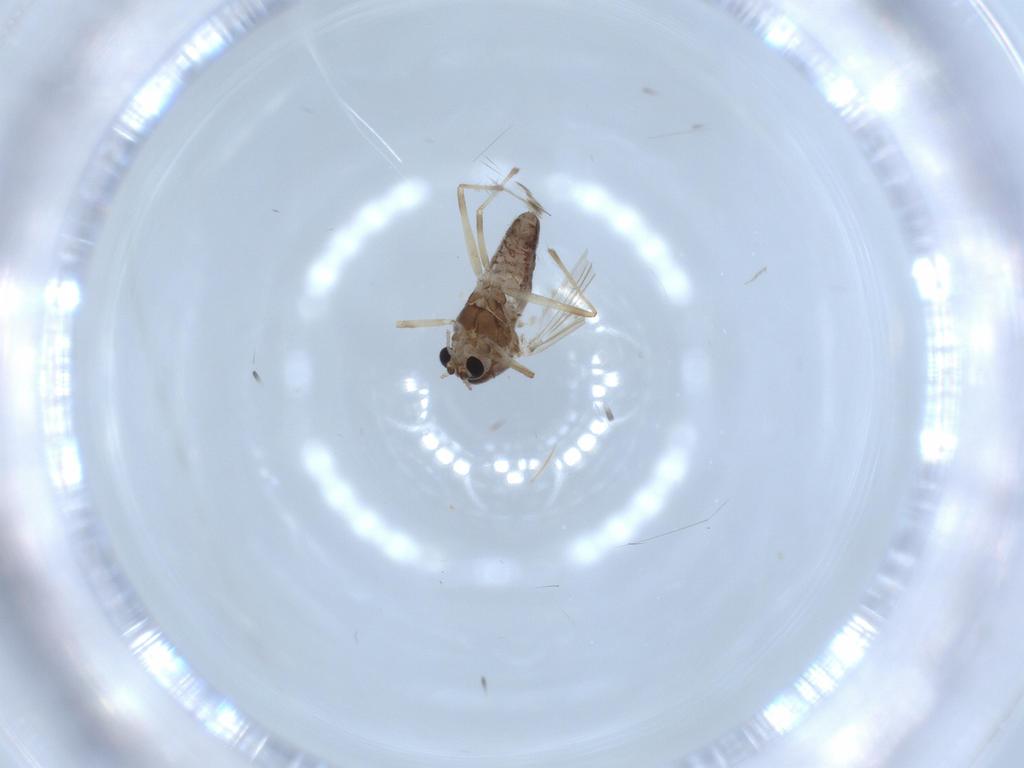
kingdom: Animalia
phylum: Arthropoda
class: Insecta
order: Diptera
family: Chironomidae
